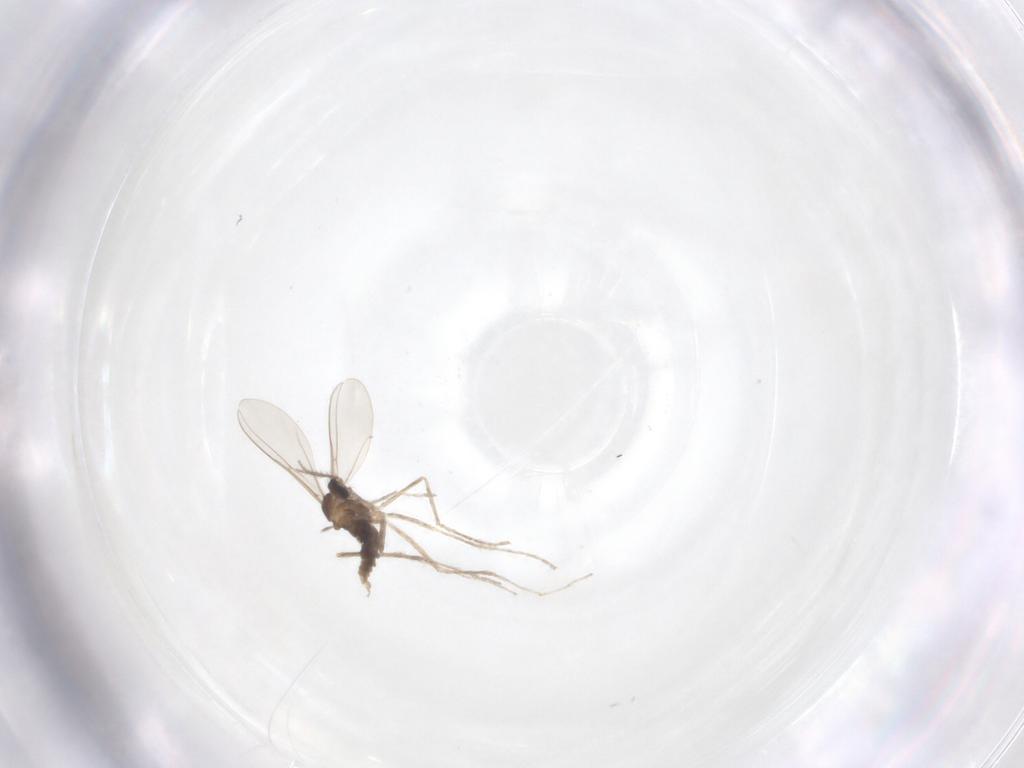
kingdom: Animalia
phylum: Arthropoda
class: Insecta
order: Diptera
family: Cecidomyiidae
